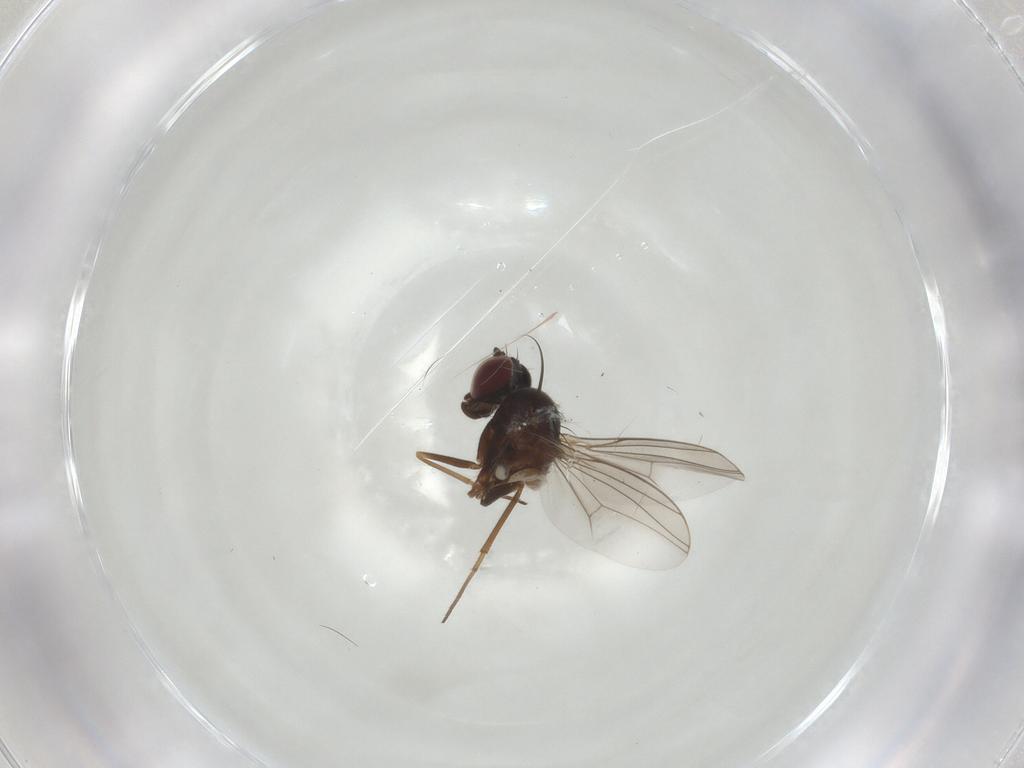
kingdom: Animalia
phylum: Arthropoda
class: Insecta
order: Diptera
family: Dolichopodidae
